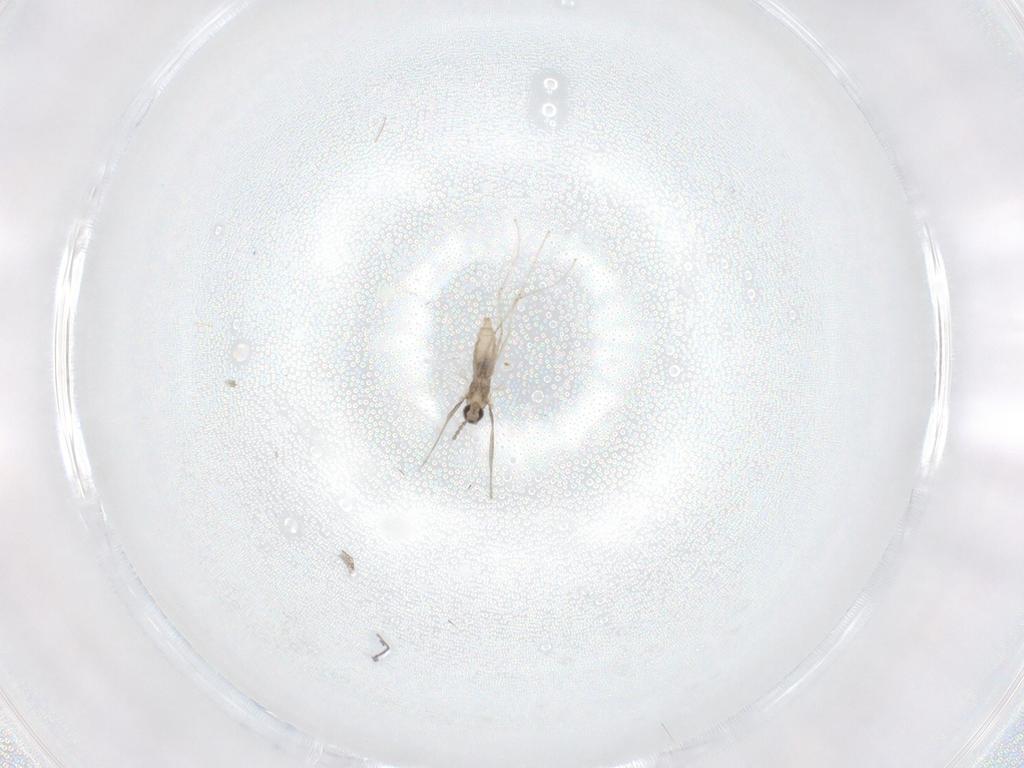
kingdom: Animalia
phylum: Arthropoda
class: Insecta
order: Diptera
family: Cecidomyiidae
